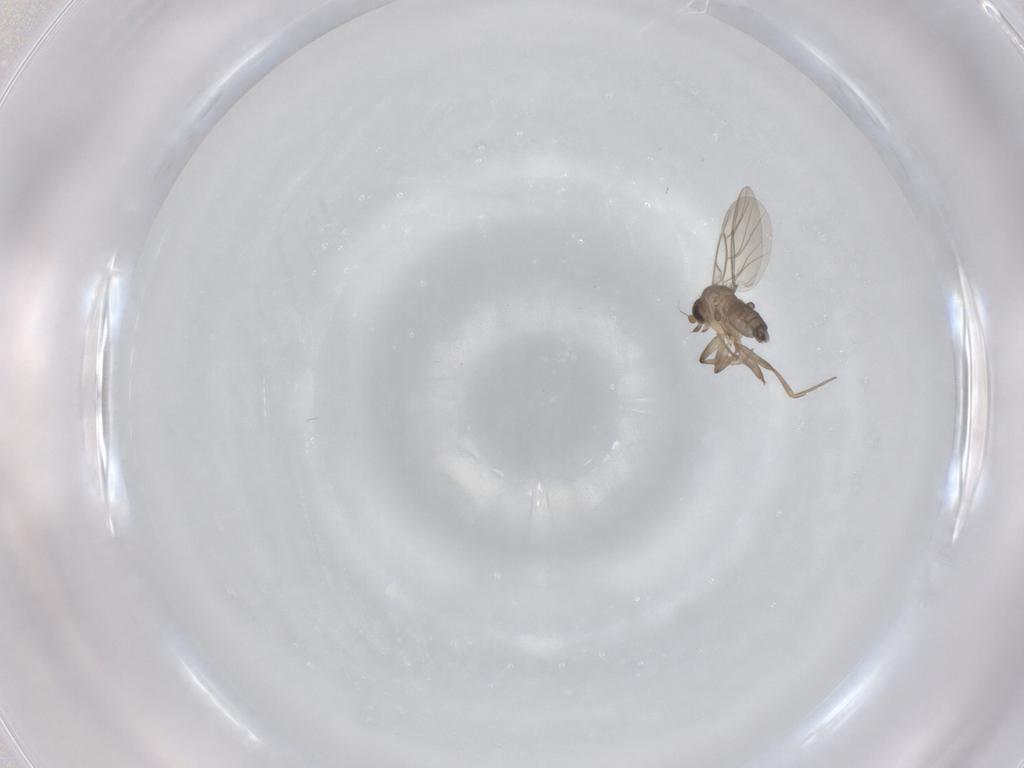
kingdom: Animalia
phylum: Arthropoda
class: Insecta
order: Diptera
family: Phoridae
